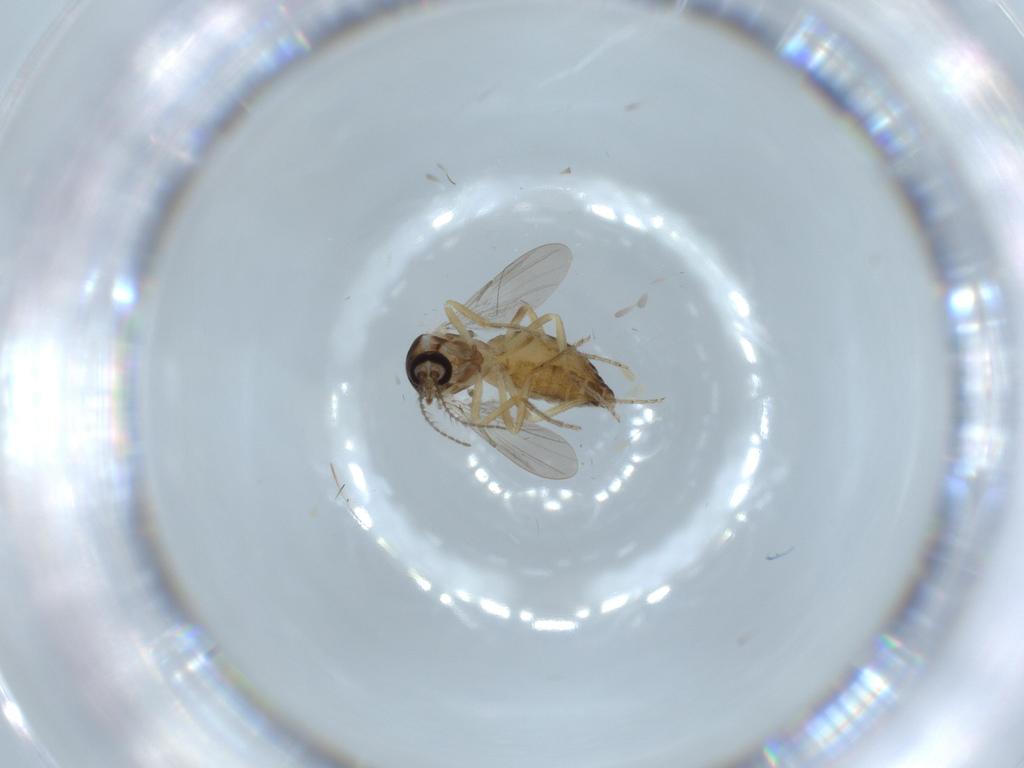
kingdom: Animalia
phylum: Arthropoda
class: Insecta
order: Diptera
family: Ceratopogonidae
